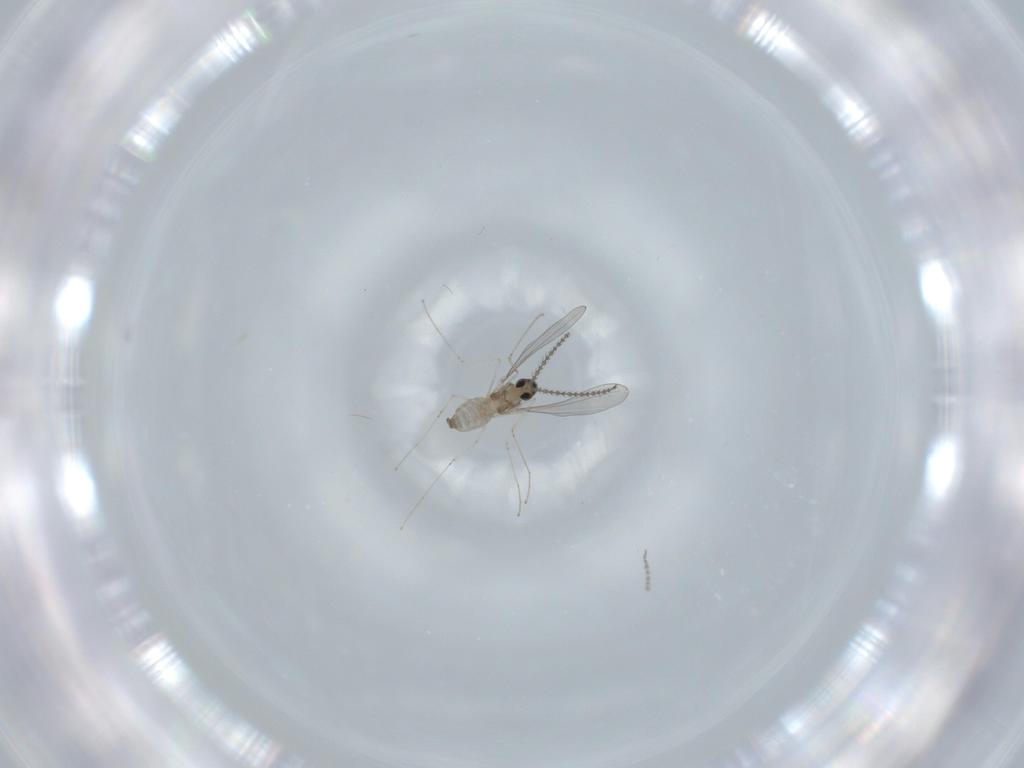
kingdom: Animalia
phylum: Arthropoda
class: Insecta
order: Diptera
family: Cecidomyiidae
